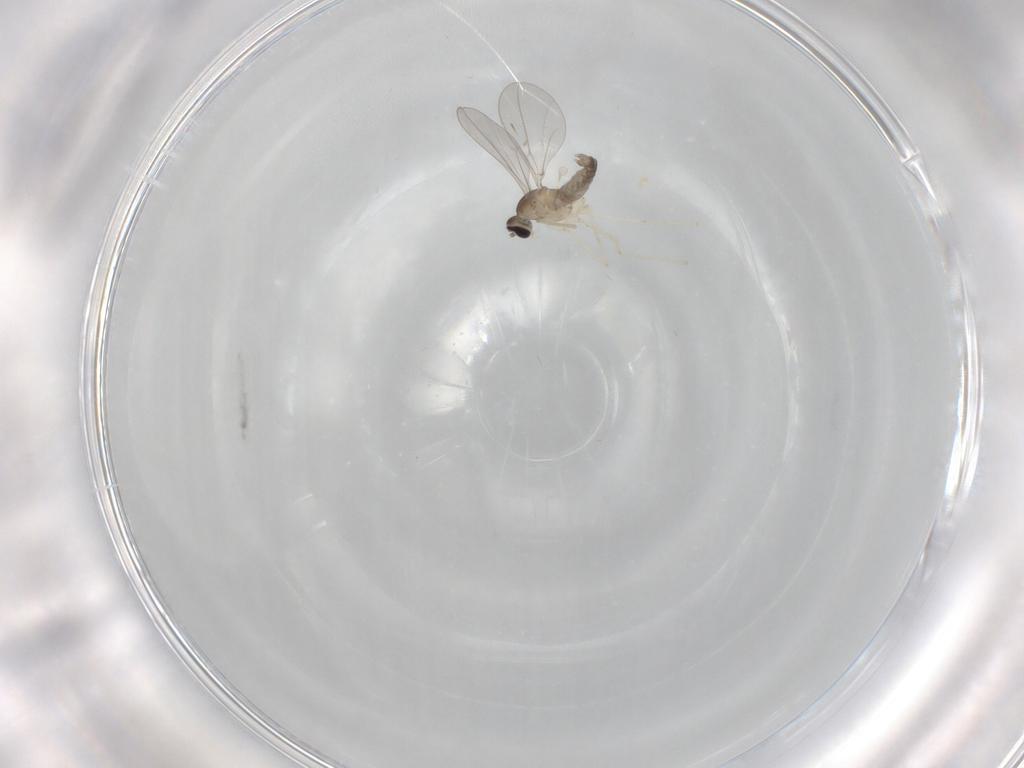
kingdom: Animalia
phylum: Arthropoda
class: Insecta
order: Diptera
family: Cecidomyiidae
